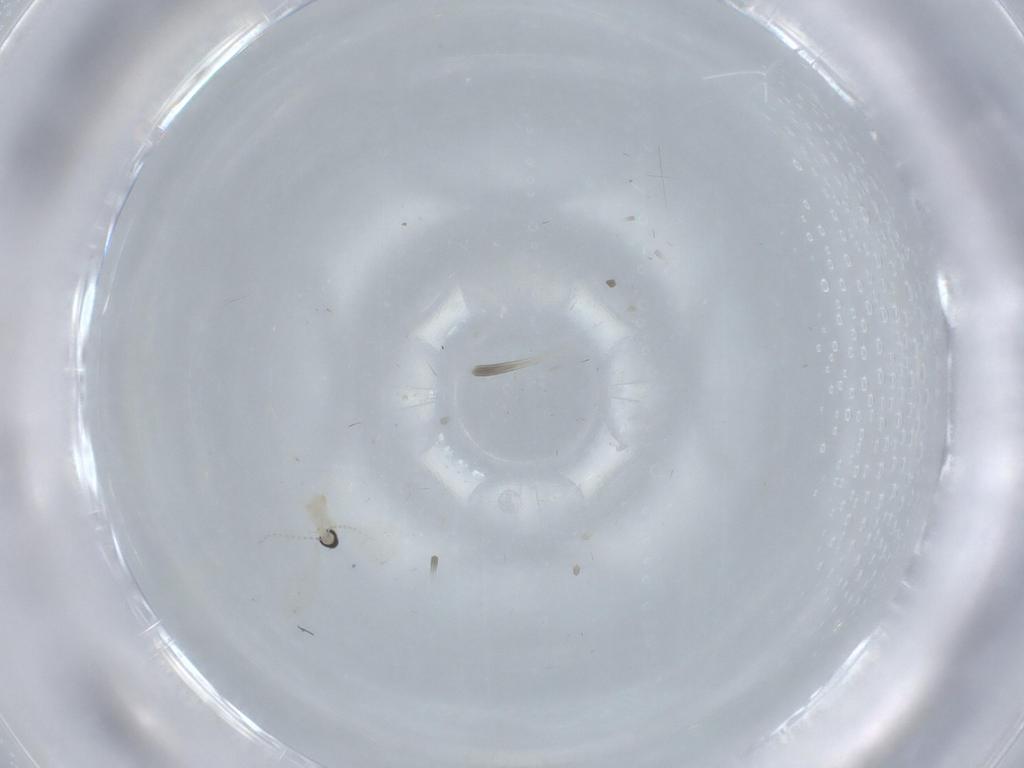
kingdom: Animalia
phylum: Arthropoda
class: Insecta
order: Diptera
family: Cecidomyiidae
